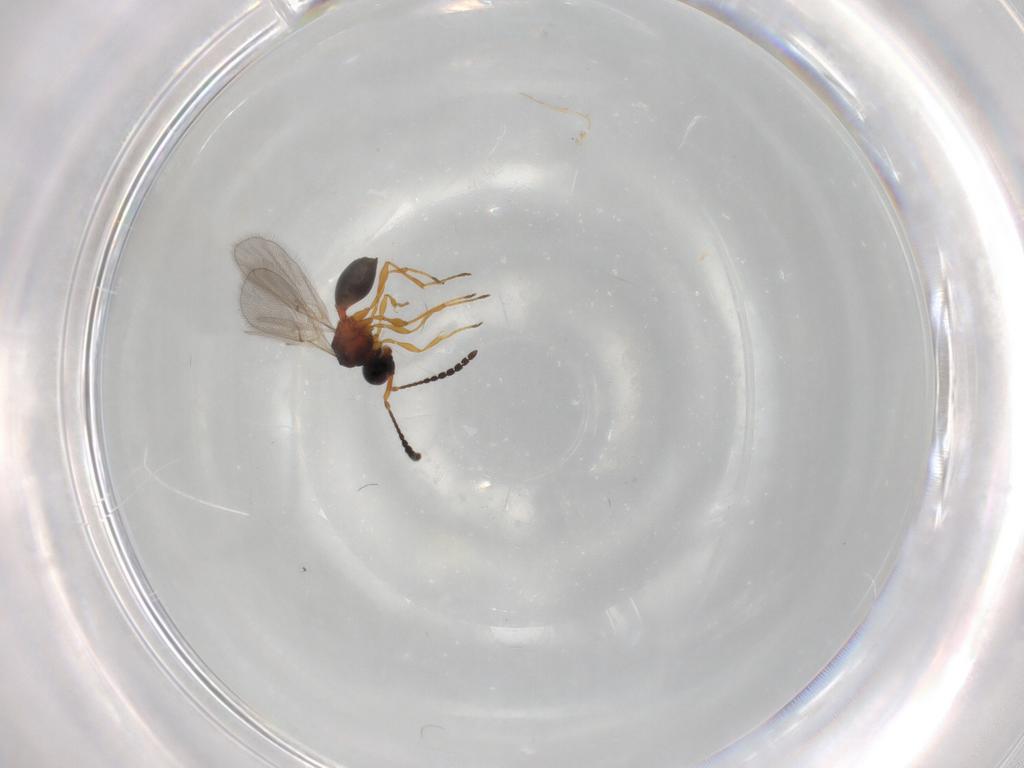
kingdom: Animalia
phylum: Arthropoda
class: Insecta
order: Hymenoptera
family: Diapriidae
